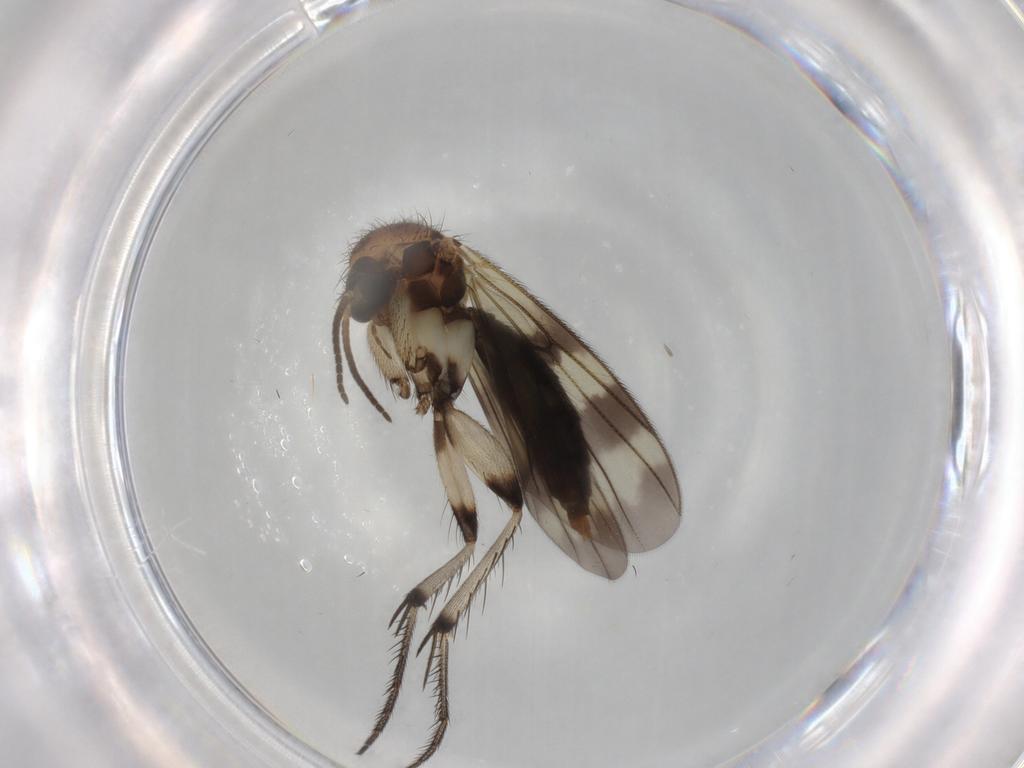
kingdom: Animalia
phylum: Arthropoda
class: Insecta
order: Diptera
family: Mycetophilidae
